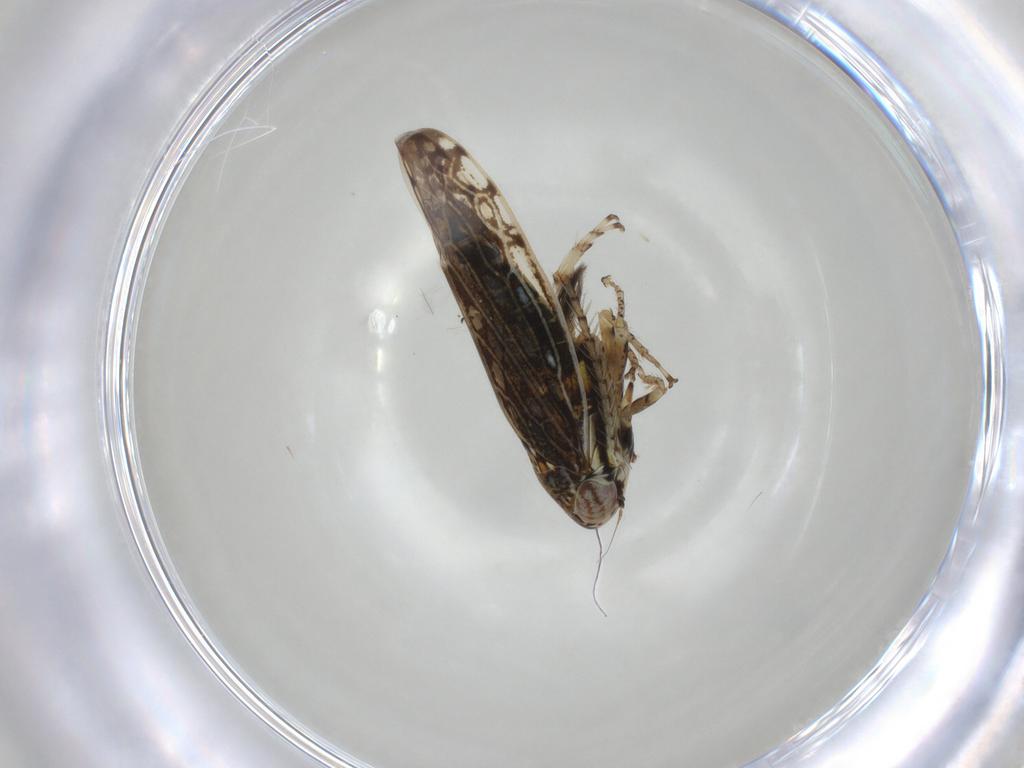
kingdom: Animalia
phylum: Arthropoda
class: Insecta
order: Hemiptera
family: Cicadellidae
